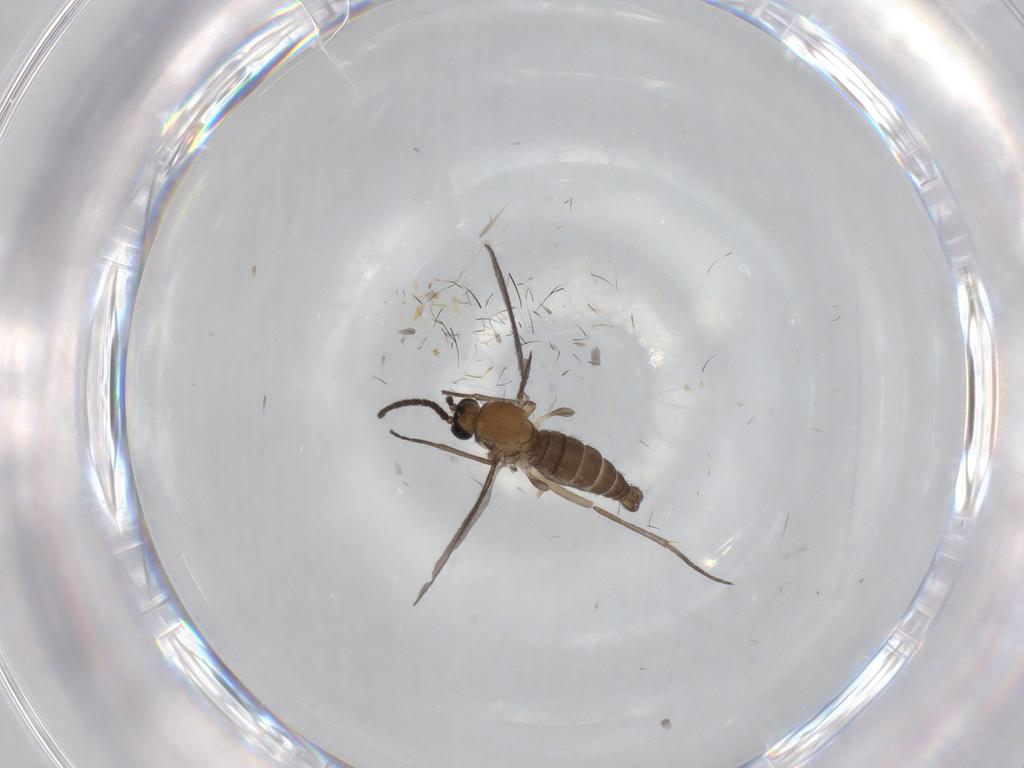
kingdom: Animalia
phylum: Arthropoda
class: Insecta
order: Diptera
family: Sciaridae
